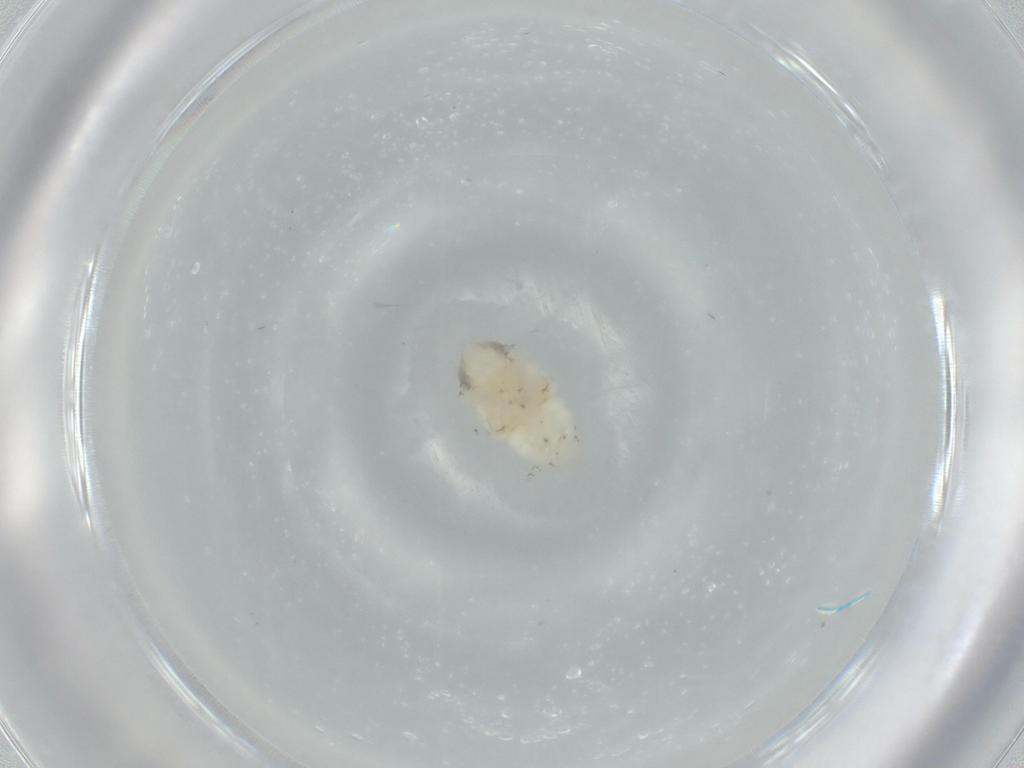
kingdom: Animalia
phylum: Arthropoda
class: Insecta
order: Hemiptera
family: Nogodinidae
